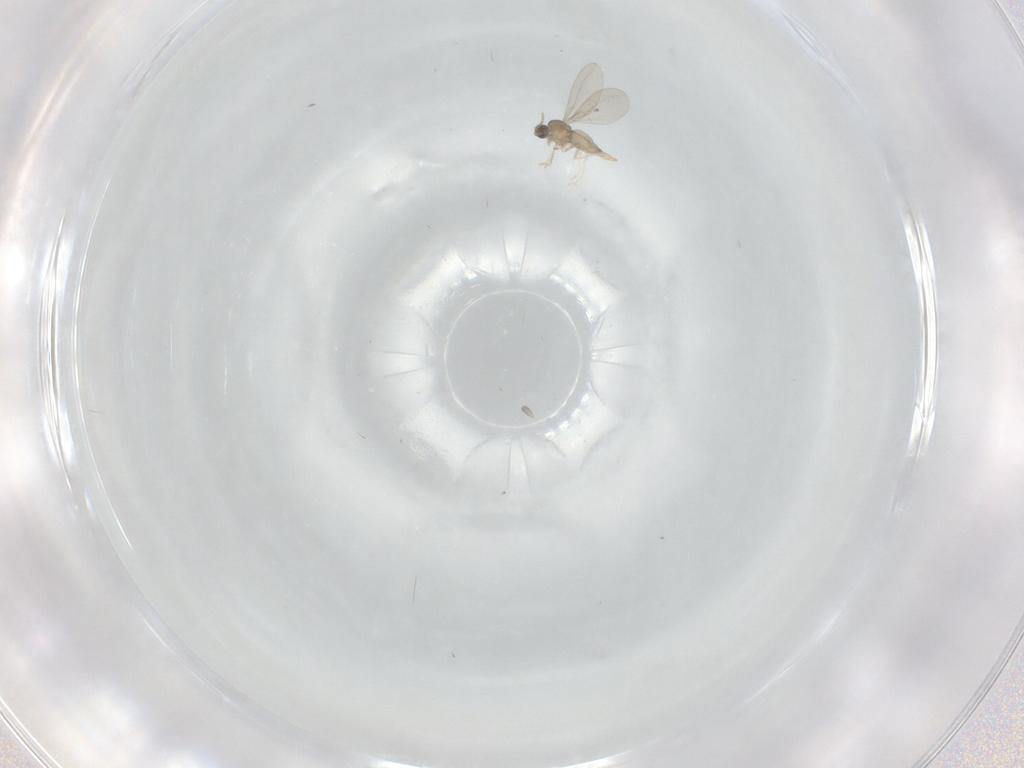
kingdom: Animalia
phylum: Arthropoda
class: Insecta
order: Diptera
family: Cecidomyiidae
